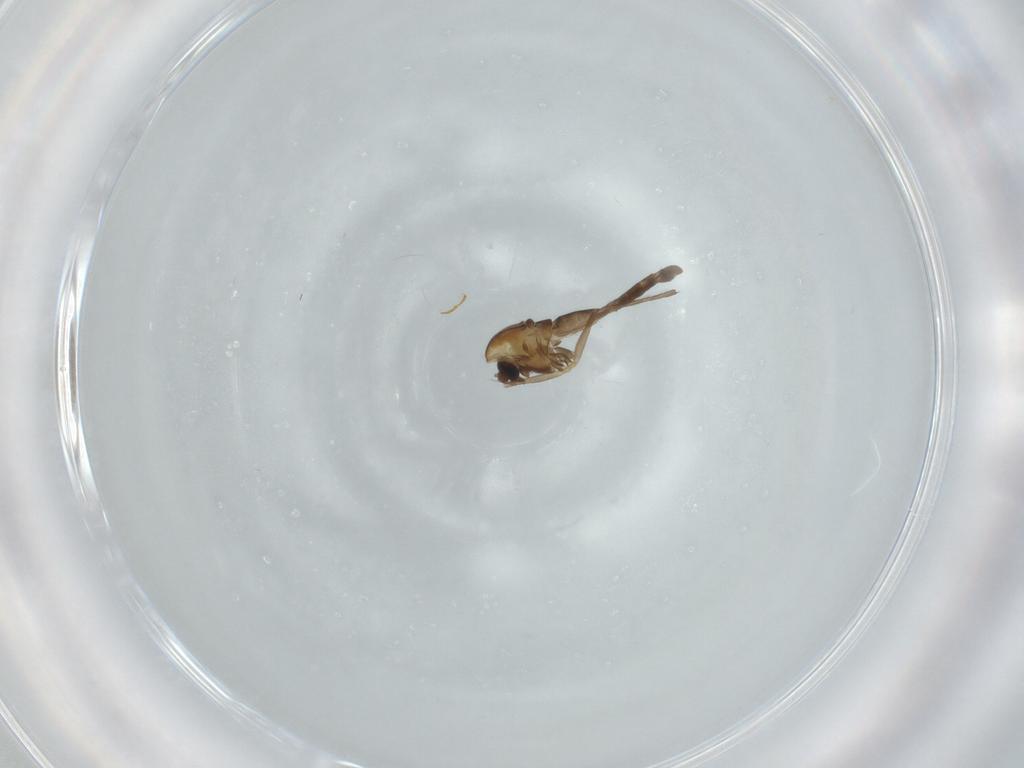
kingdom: Animalia
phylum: Arthropoda
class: Insecta
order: Diptera
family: Chironomidae
